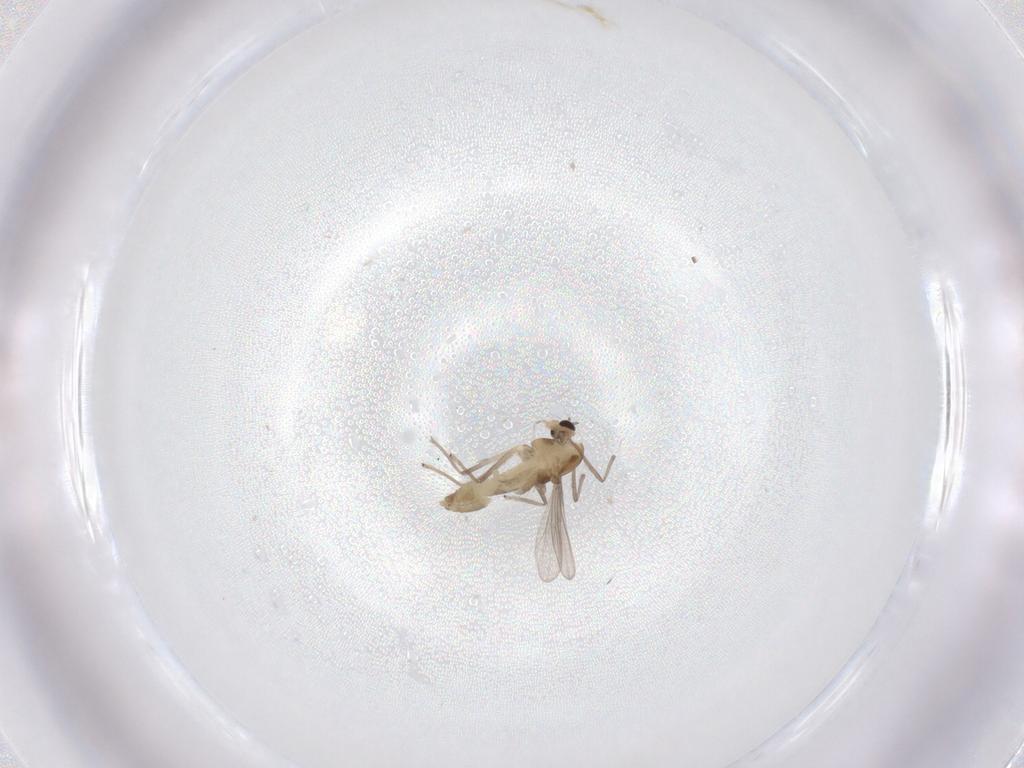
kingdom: Animalia
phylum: Arthropoda
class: Insecta
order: Diptera
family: Chironomidae
